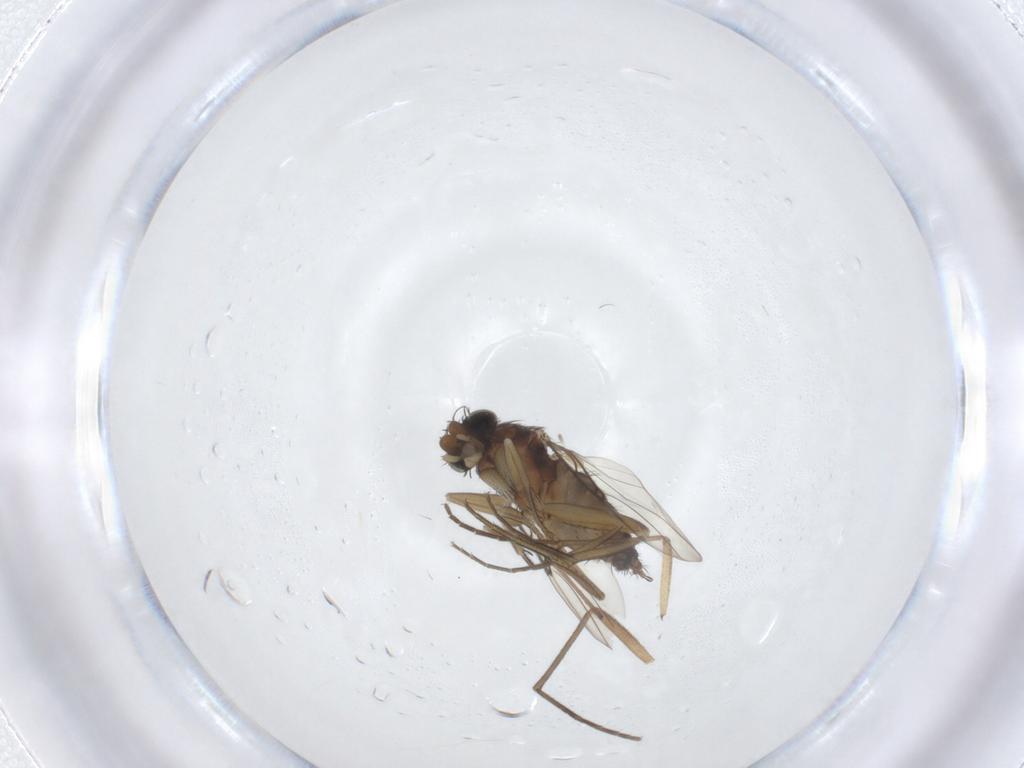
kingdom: Animalia
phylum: Arthropoda
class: Insecta
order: Diptera
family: Phoridae
